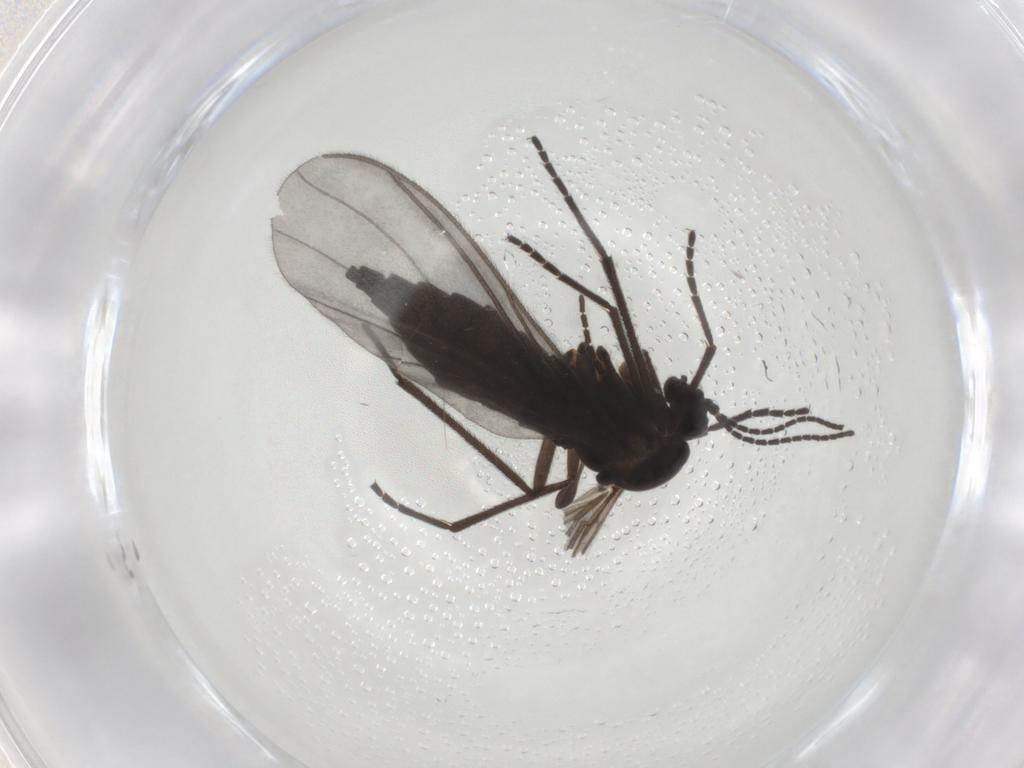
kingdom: Animalia
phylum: Arthropoda
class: Insecta
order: Diptera
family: Sciaridae
